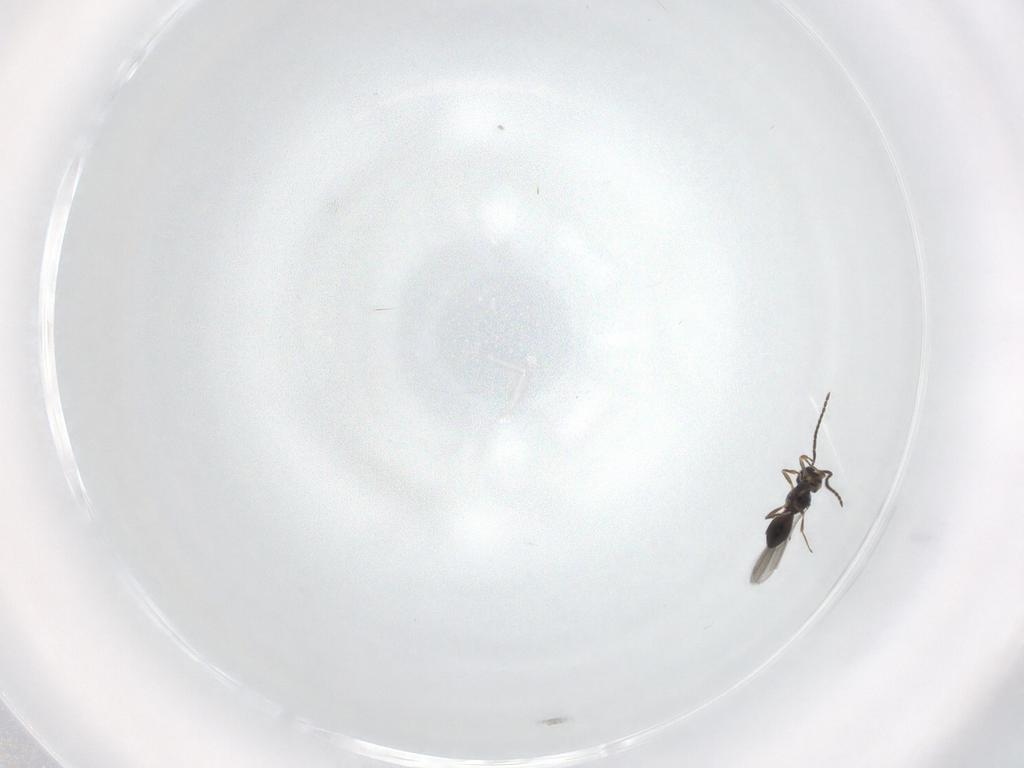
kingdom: Animalia
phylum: Arthropoda
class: Insecta
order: Hymenoptera
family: Scelionidae
